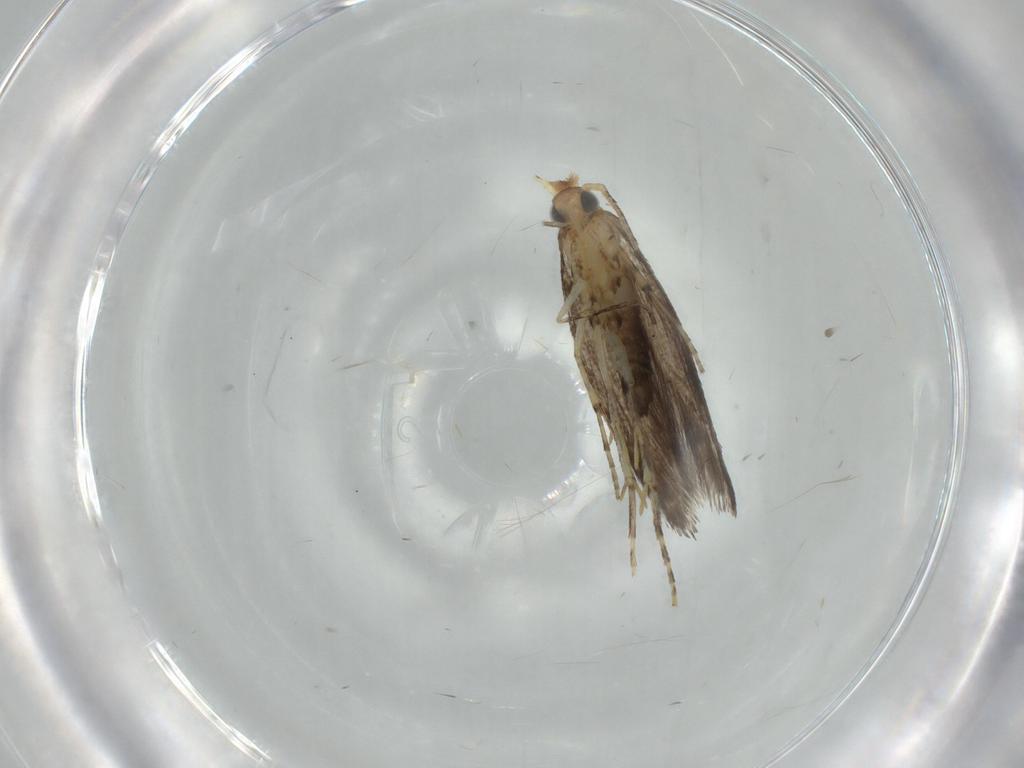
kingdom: Animalia
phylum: Arthropoda
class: Insecta
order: Lepidoptera
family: Argyresthiidae
